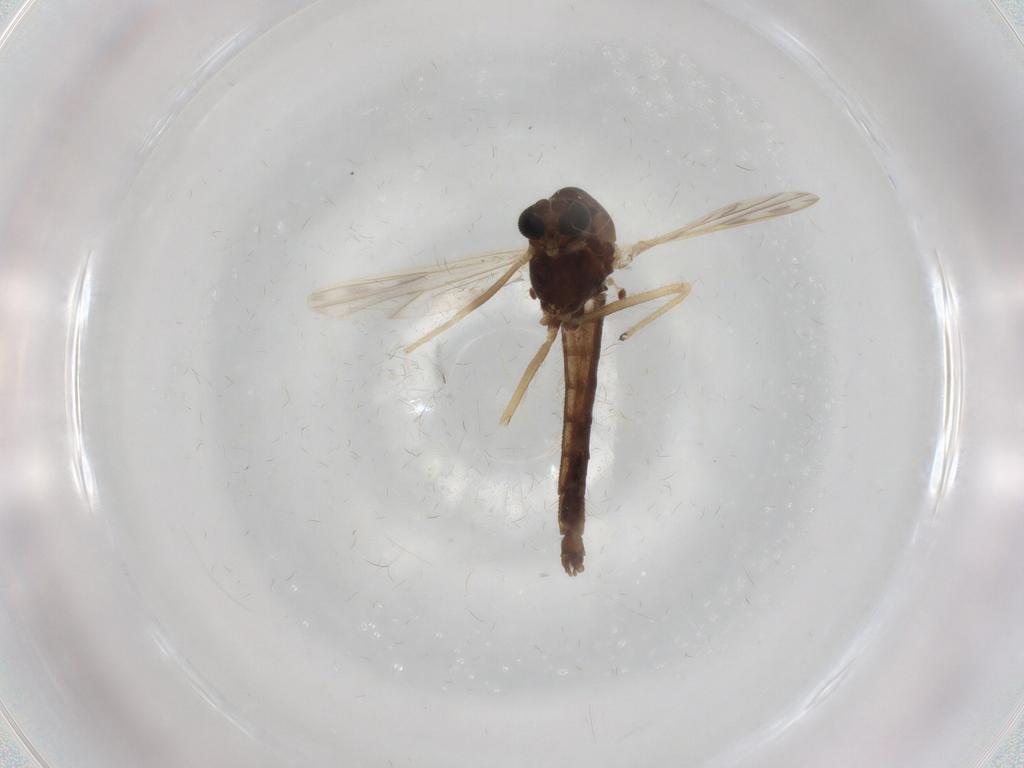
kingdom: Animalia
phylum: Arthropoda
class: Insecta
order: Diptera
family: Chironomidae
